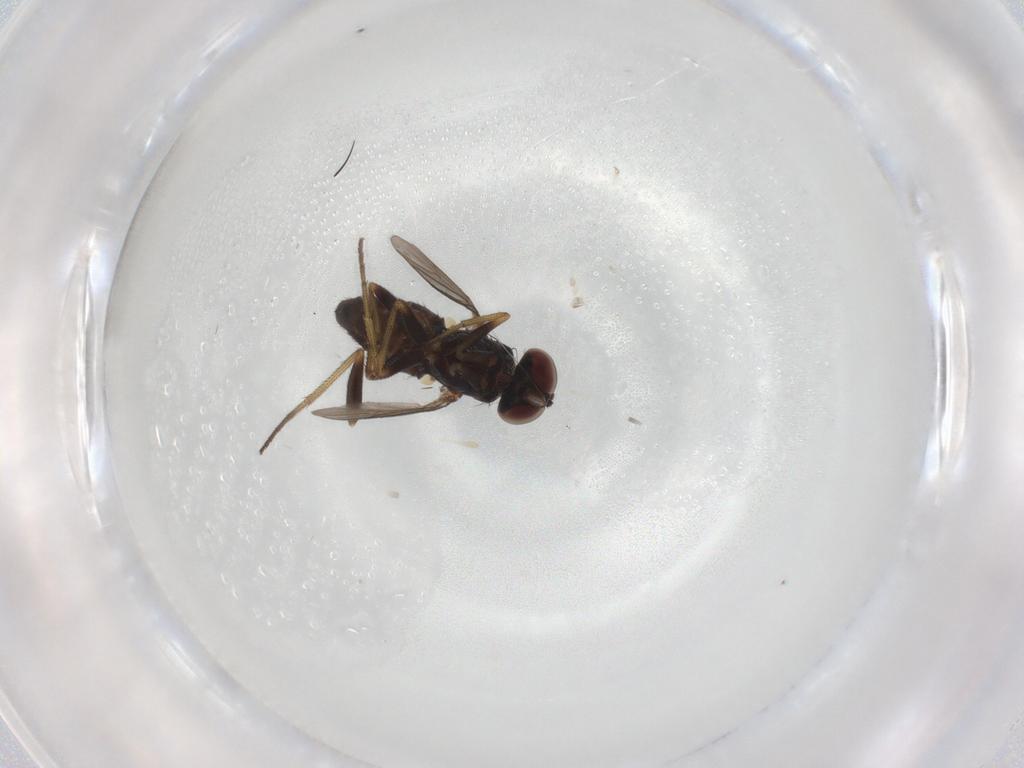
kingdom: Animalia
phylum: Arthropoda
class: Insecta
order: Diptera
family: Dolichopodidae
